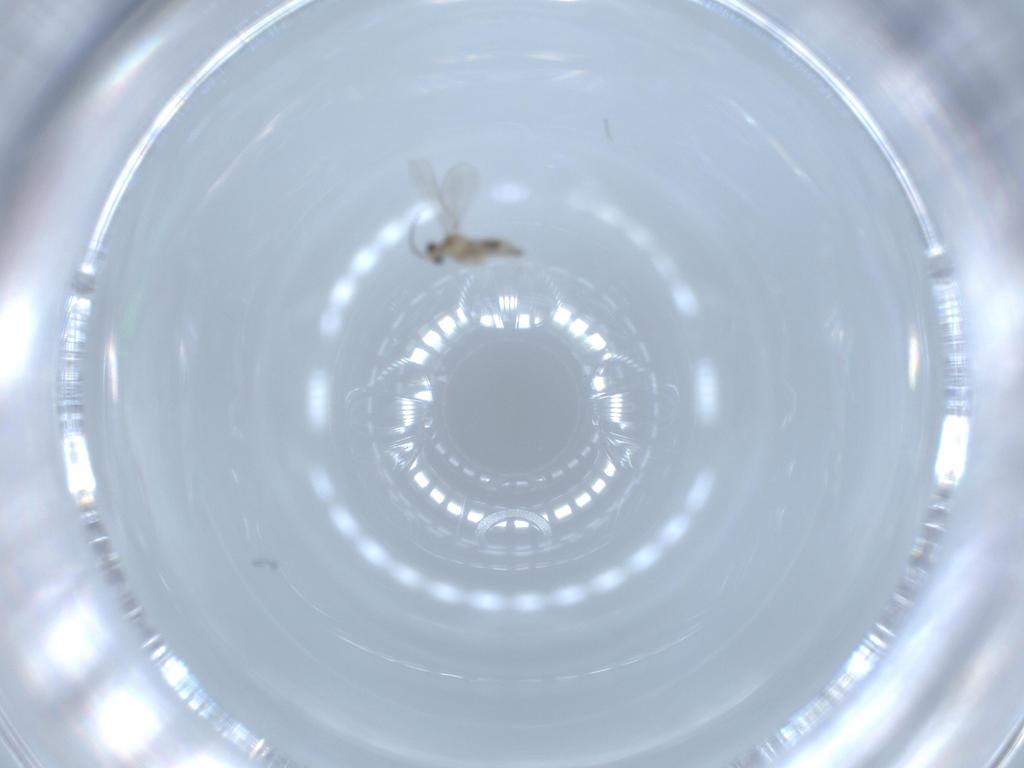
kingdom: Animalia
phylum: Arthropoda
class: Insecta
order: Diptera
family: Cecidomyiidae
